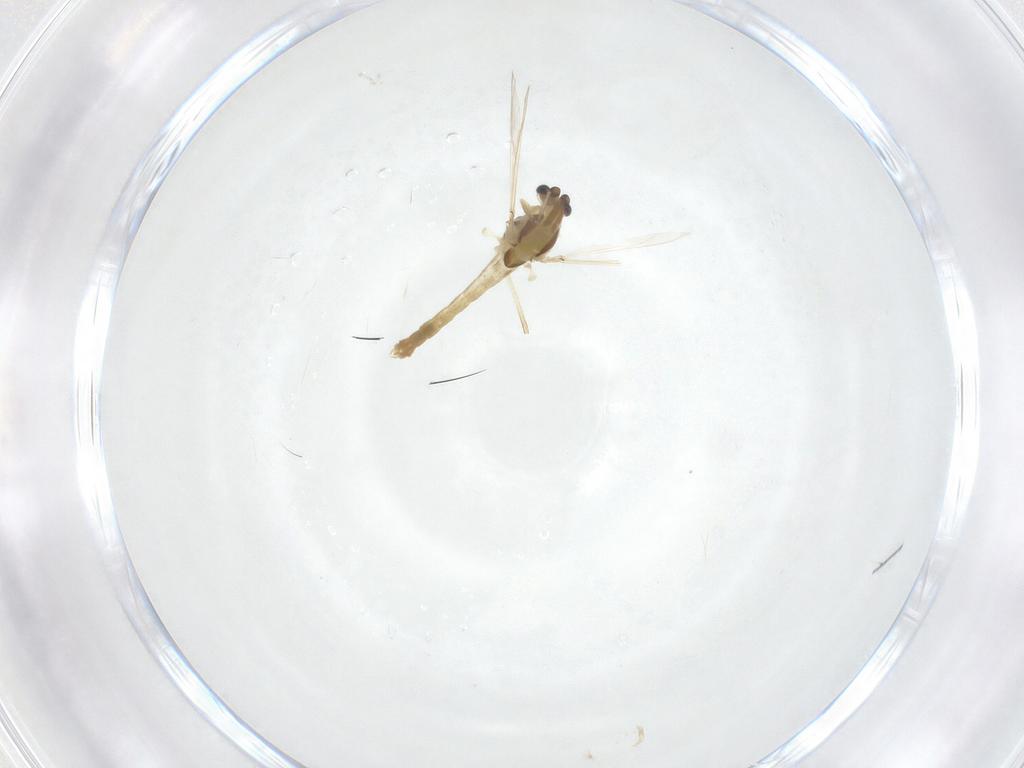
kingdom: Animalia
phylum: Arthropoda
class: Insecta
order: Diptera
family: Chironomidae
